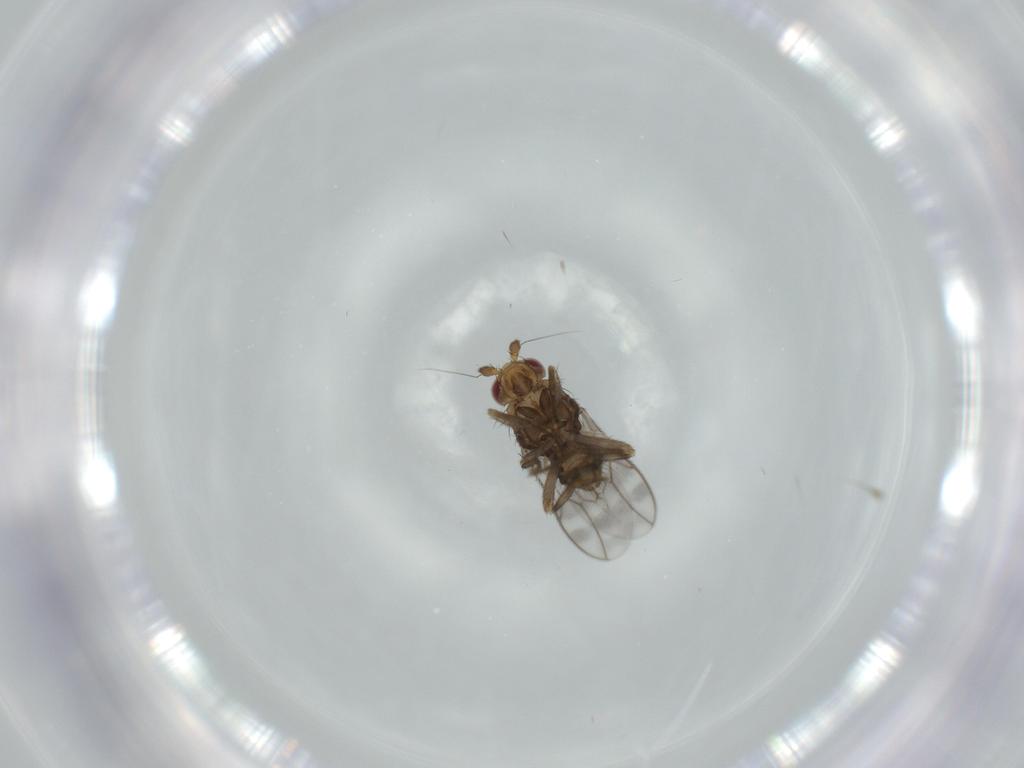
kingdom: Animalia
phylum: Arthropoda
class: Insecta
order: Diptera
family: Sphaeroceridae
